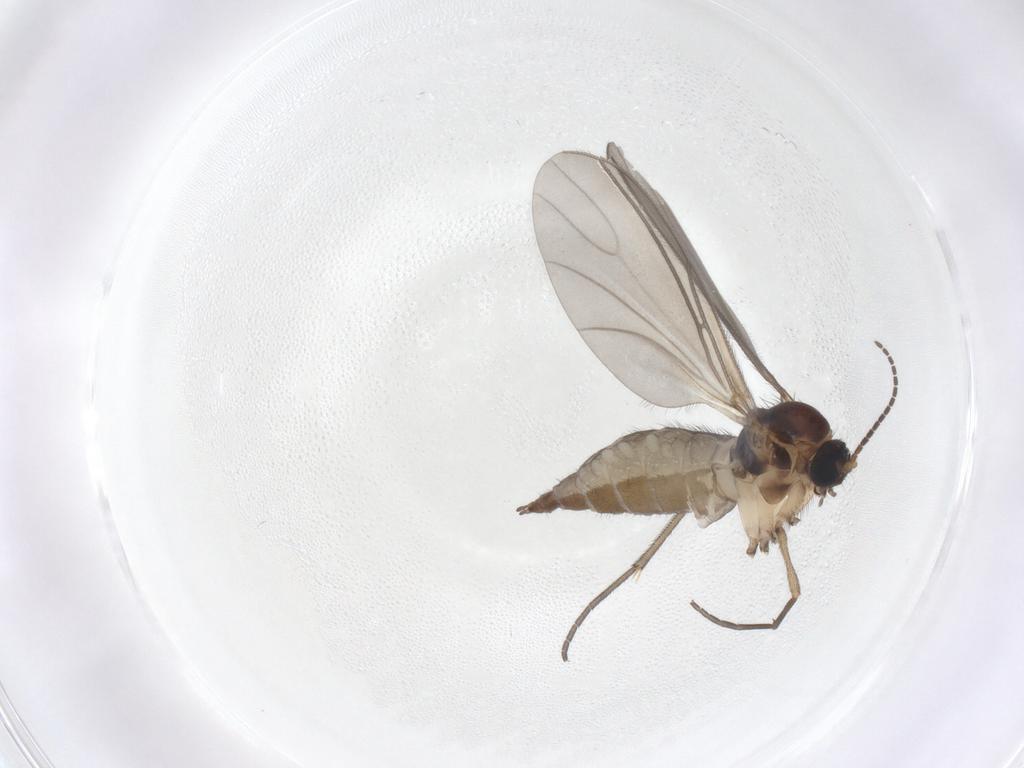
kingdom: Animalia
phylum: Arthropoda
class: Insecta
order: Diptera
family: Sciaridae
